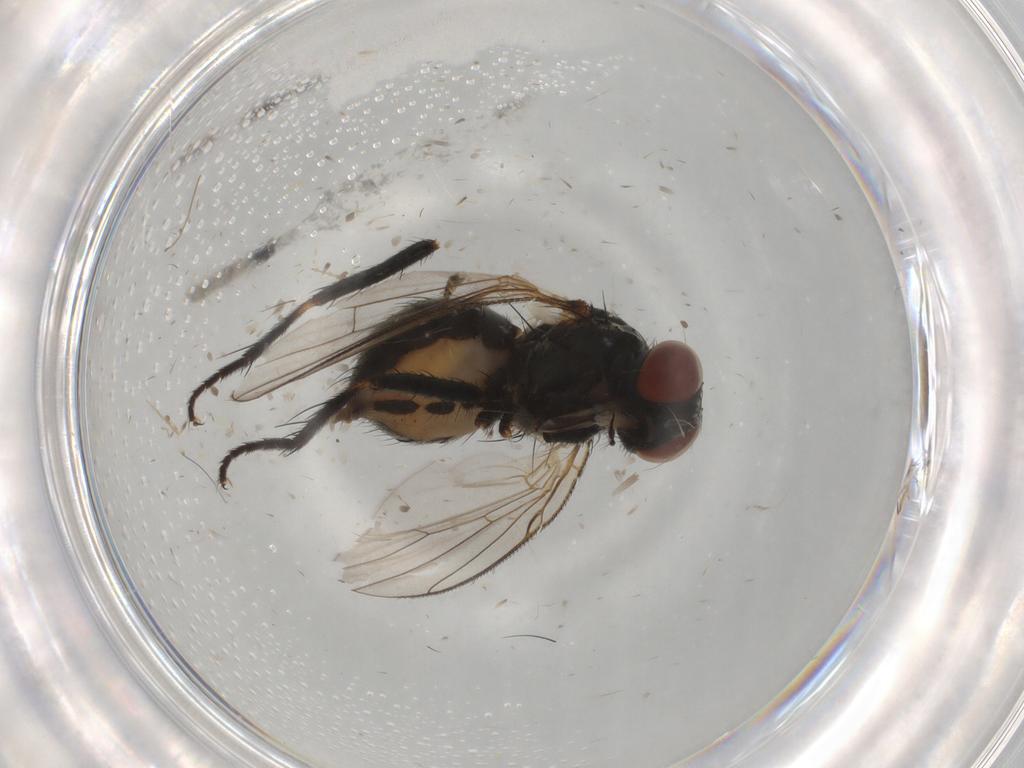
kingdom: Animalia
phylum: Arthropoda
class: Insecta
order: Diptera
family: Muscidae
